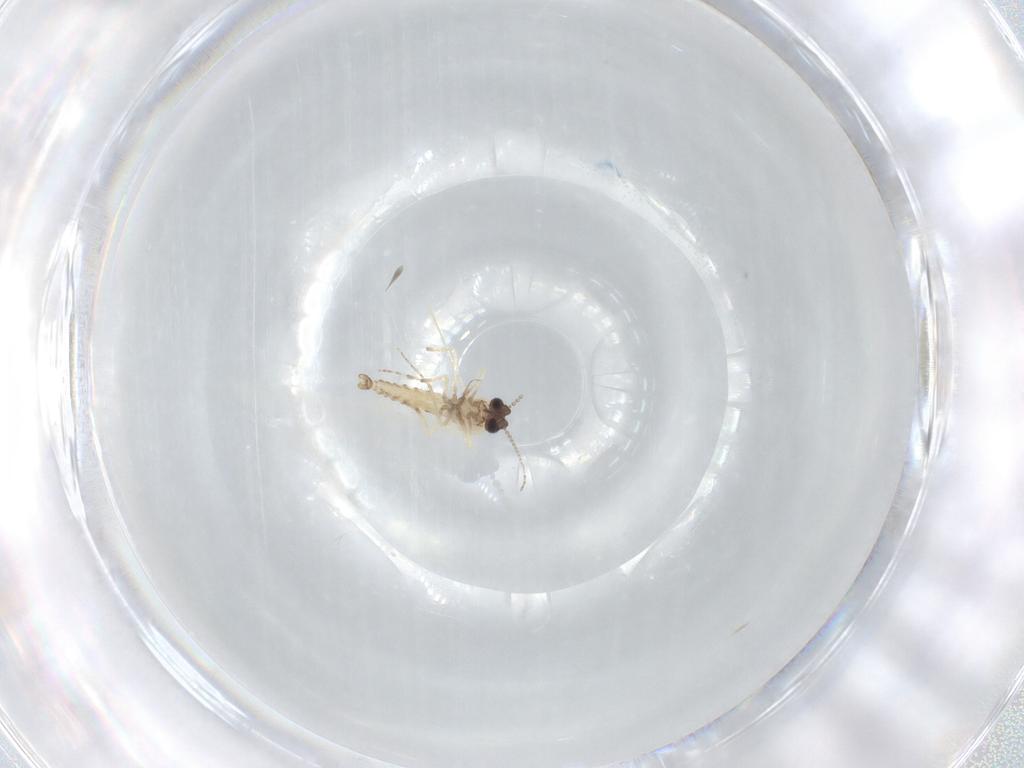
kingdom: Animalia
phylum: Arthropoda
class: Insecta
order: Diptera
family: Ceratopogonidae
